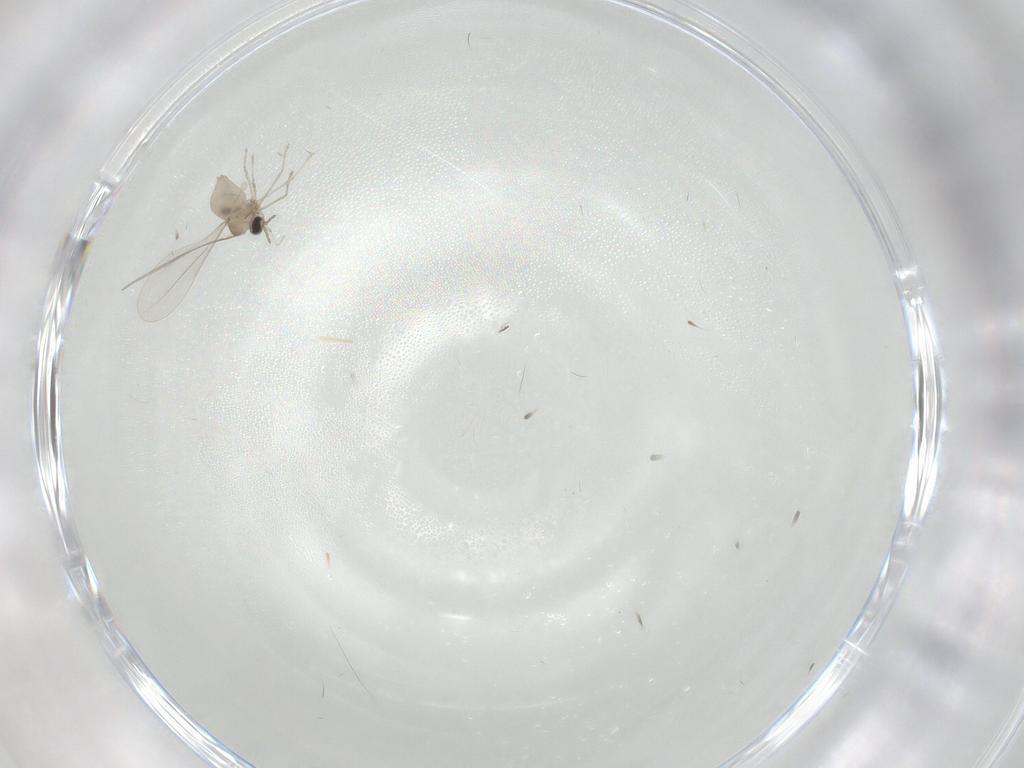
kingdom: Animalia
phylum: Arthropoda
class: Insecta
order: Diptera
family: Cecidomyiidae
